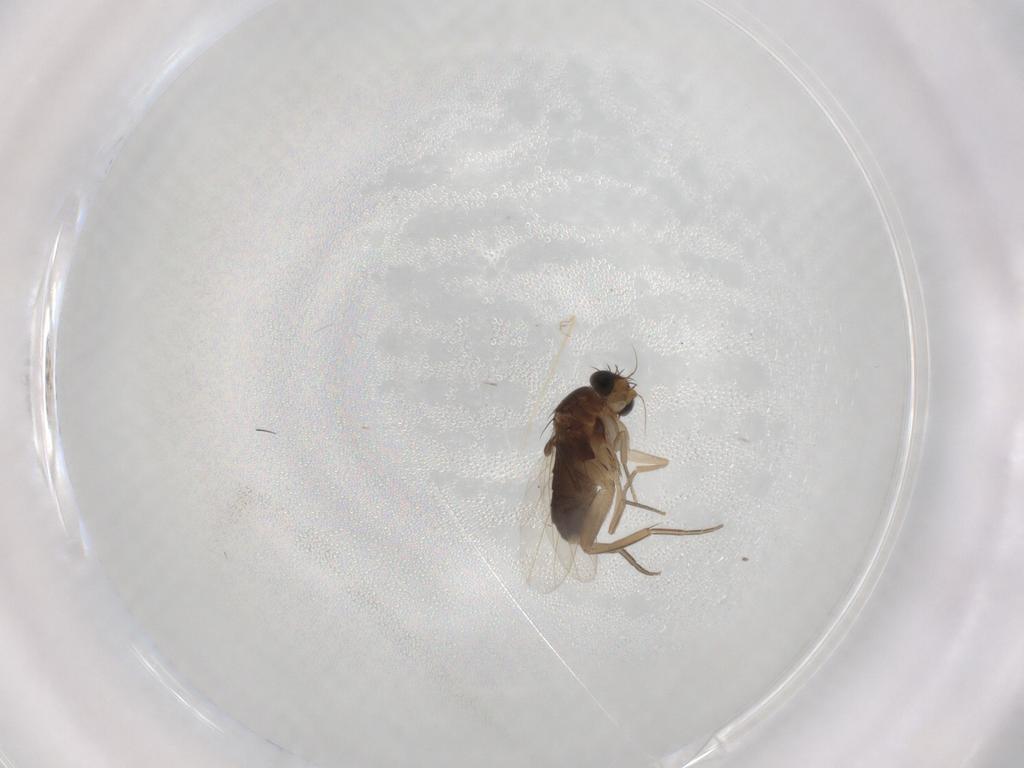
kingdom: Animalia
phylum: Arthropoda
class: Insecta
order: Diptera
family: Phoridae
